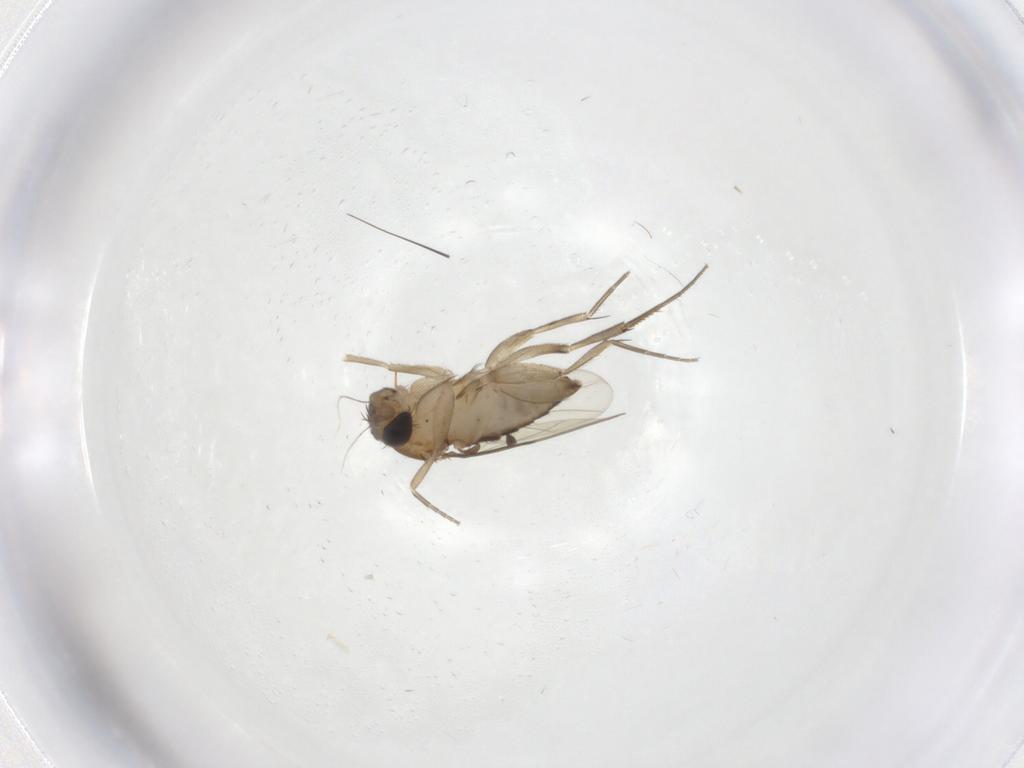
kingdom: Animalia
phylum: Arthropoda
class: Insecta
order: Diptera
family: Phoridae
